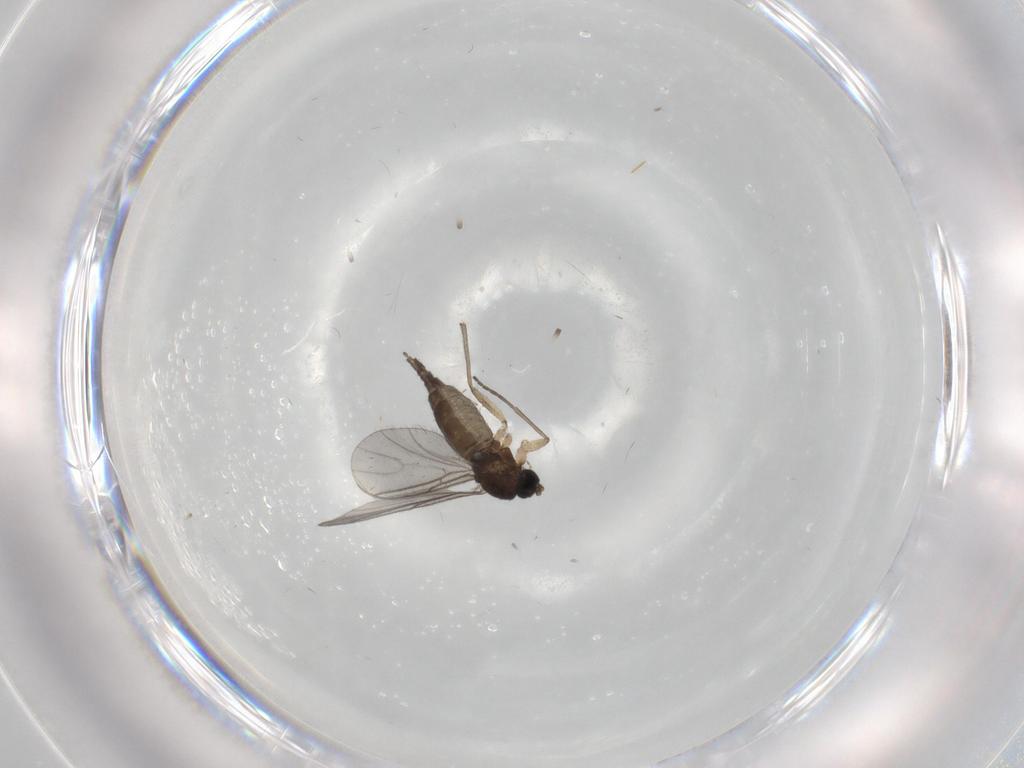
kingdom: Animalia
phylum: Arthropoda
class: Insecta
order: Diptera
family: Sciaridae
